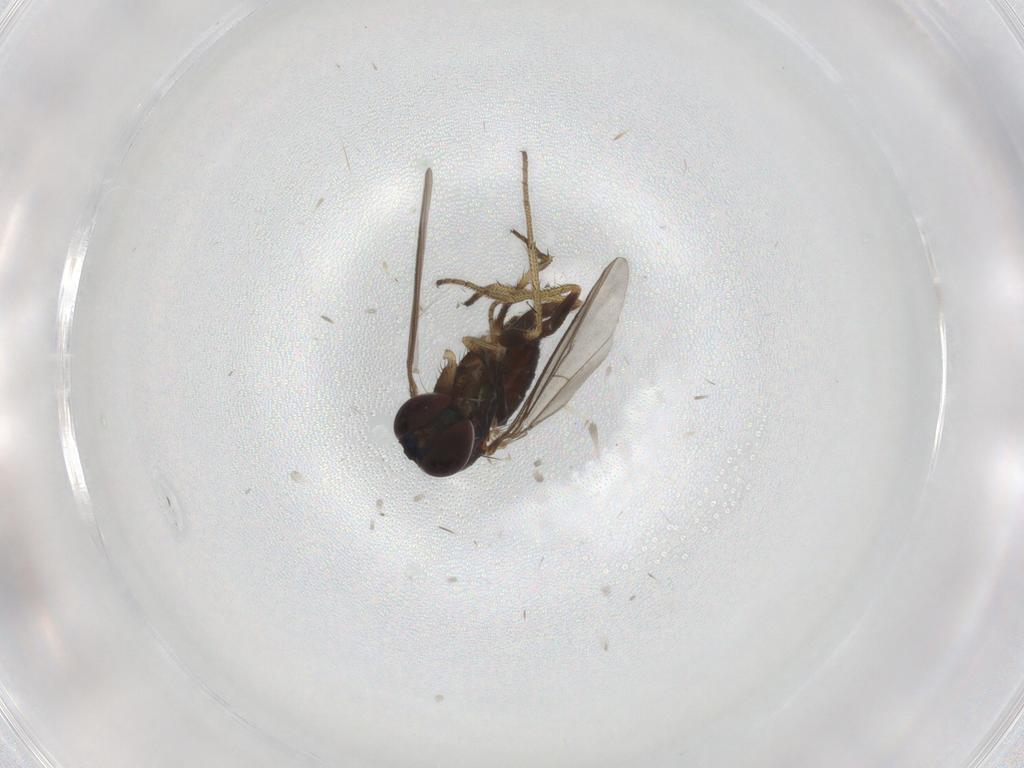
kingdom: Animalia
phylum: Arthropoda
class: Insecta
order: Diptera
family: Dolichopodidae
